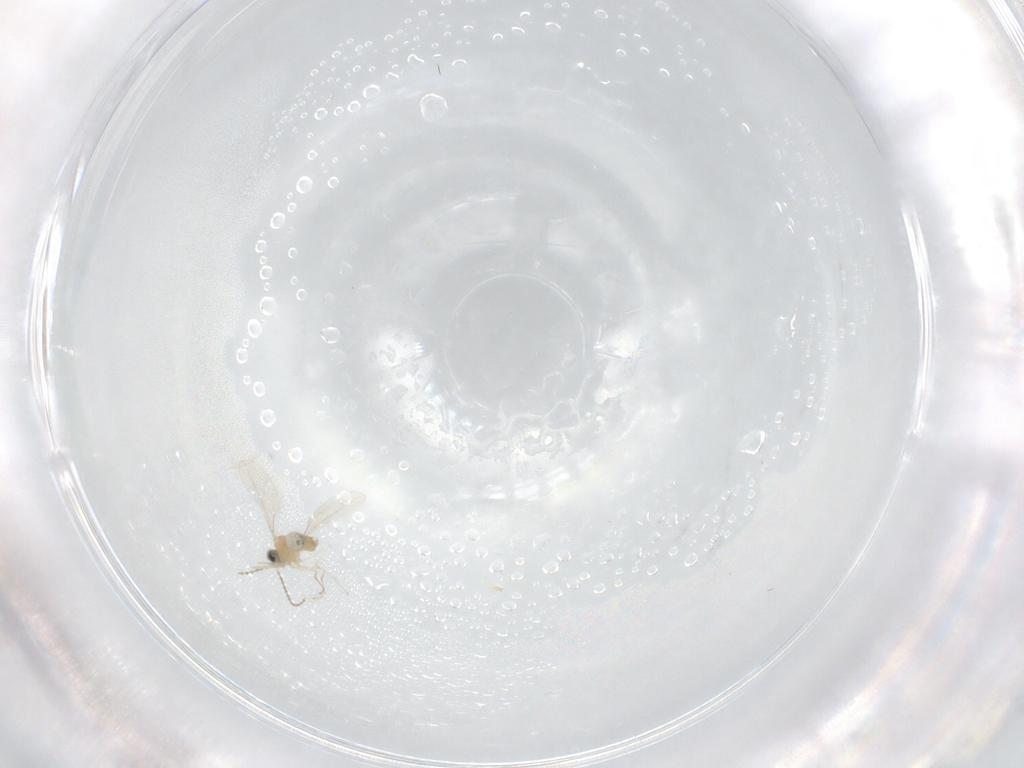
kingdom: Animalia
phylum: Arthropoda
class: Insecta
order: Diptera
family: Cecidomyiidae
